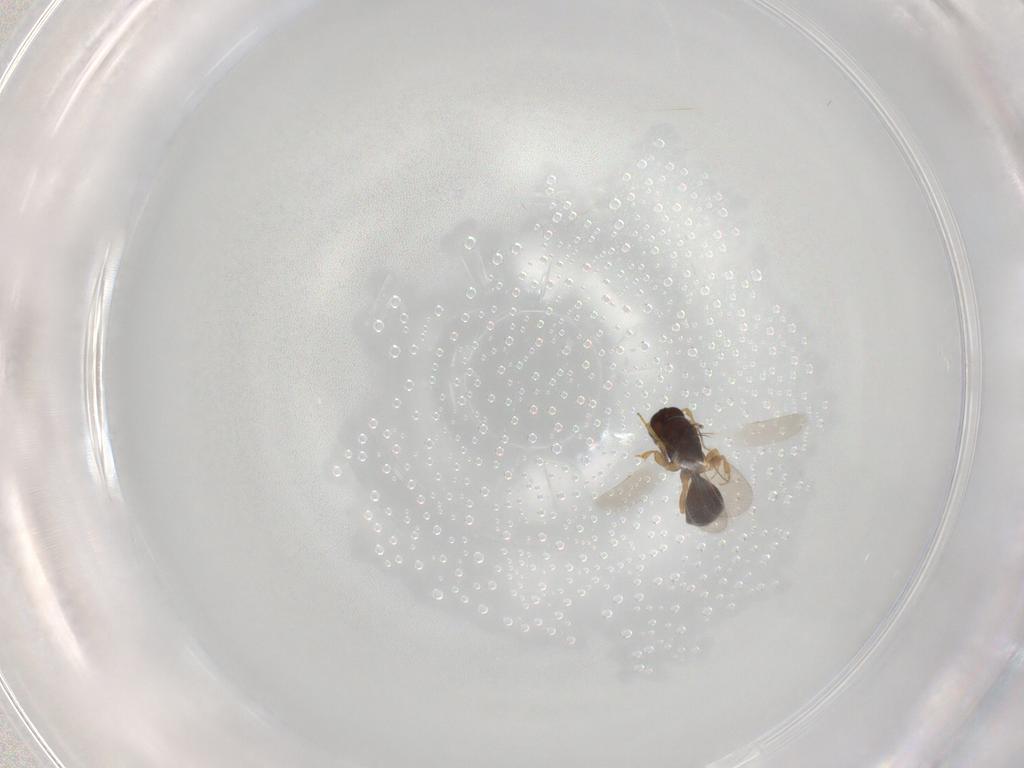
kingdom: Animalia
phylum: Arthropoda
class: Insecta
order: Hymenoptera
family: Bethylidae
